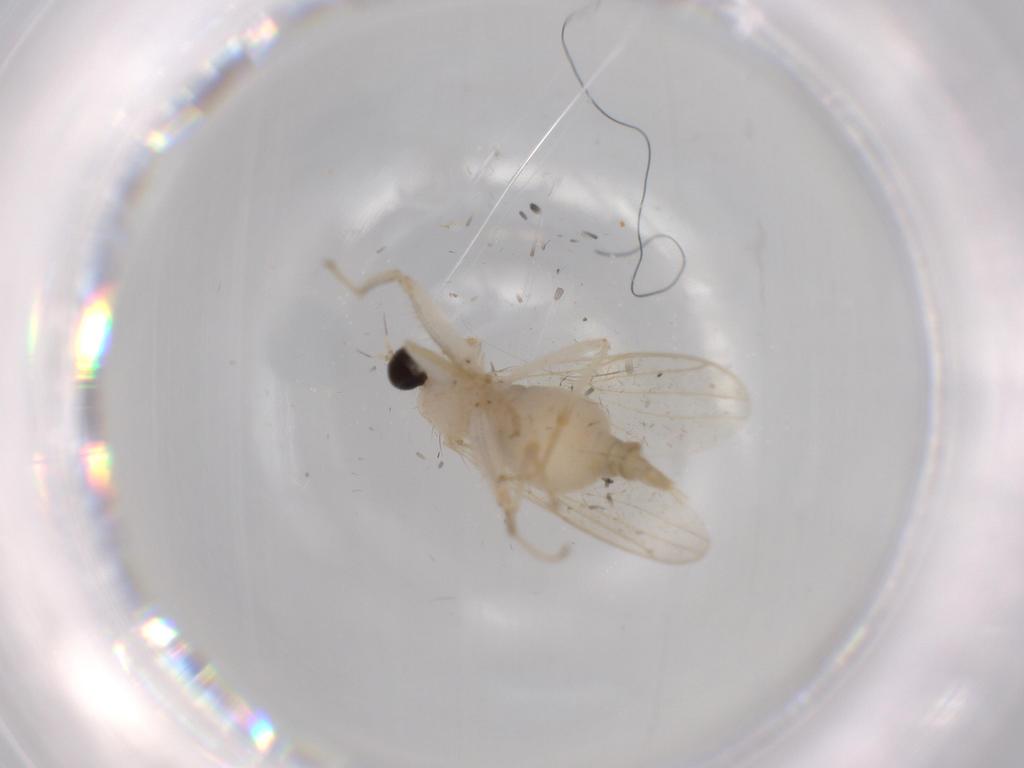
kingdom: Animalia
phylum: Arthropoda
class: Insecta
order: Diptera
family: Hybotidae
